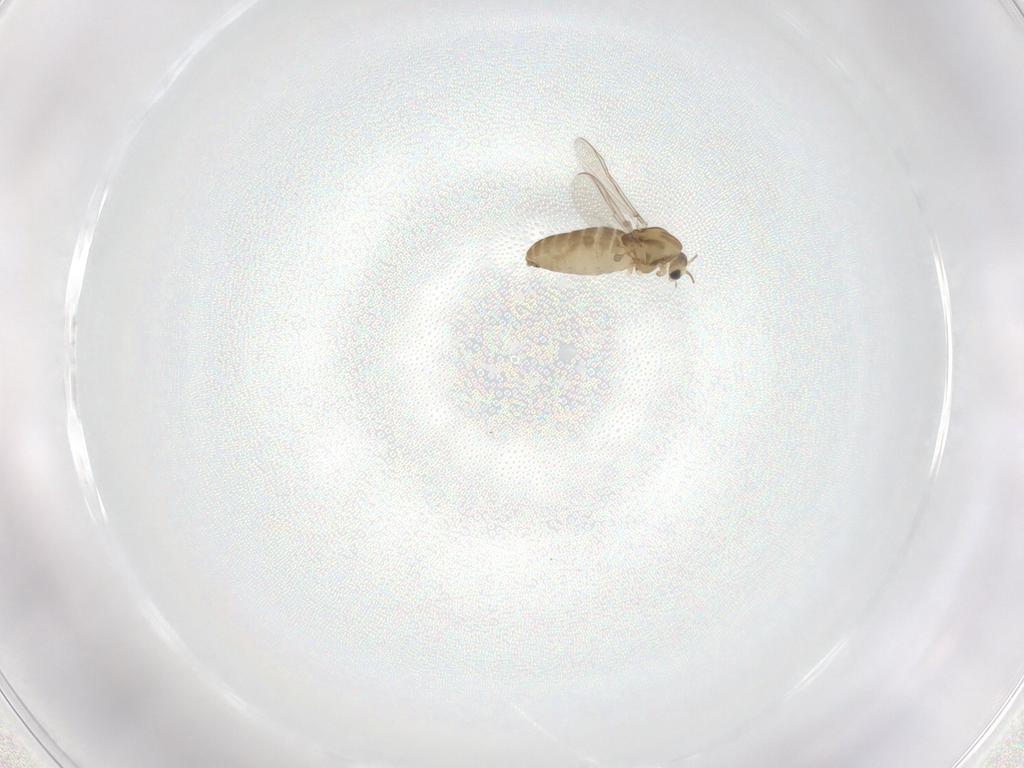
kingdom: Animalia
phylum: Arthropoda
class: Insecta
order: Diptera
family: Chironomidae
